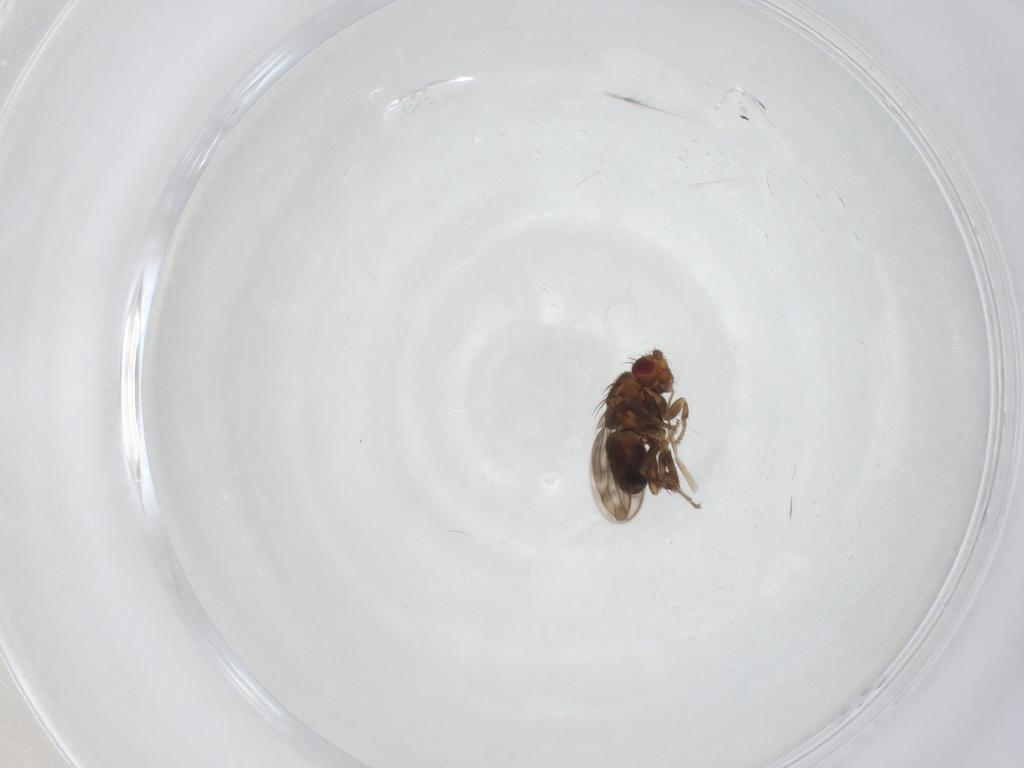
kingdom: Animalia
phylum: Arthropoda
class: Insecta
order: Diptera
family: Sphaeroceridae
